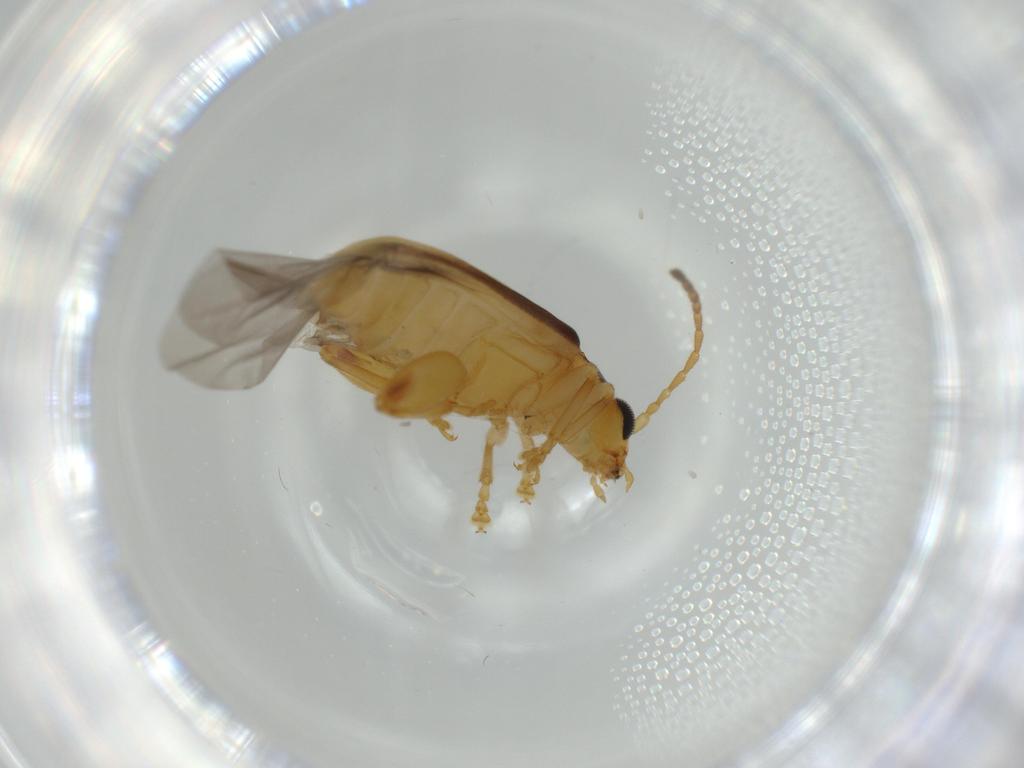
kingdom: Animalia
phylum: Arthropoda
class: Insecta
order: Coleoptera
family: Chrysomelidae
